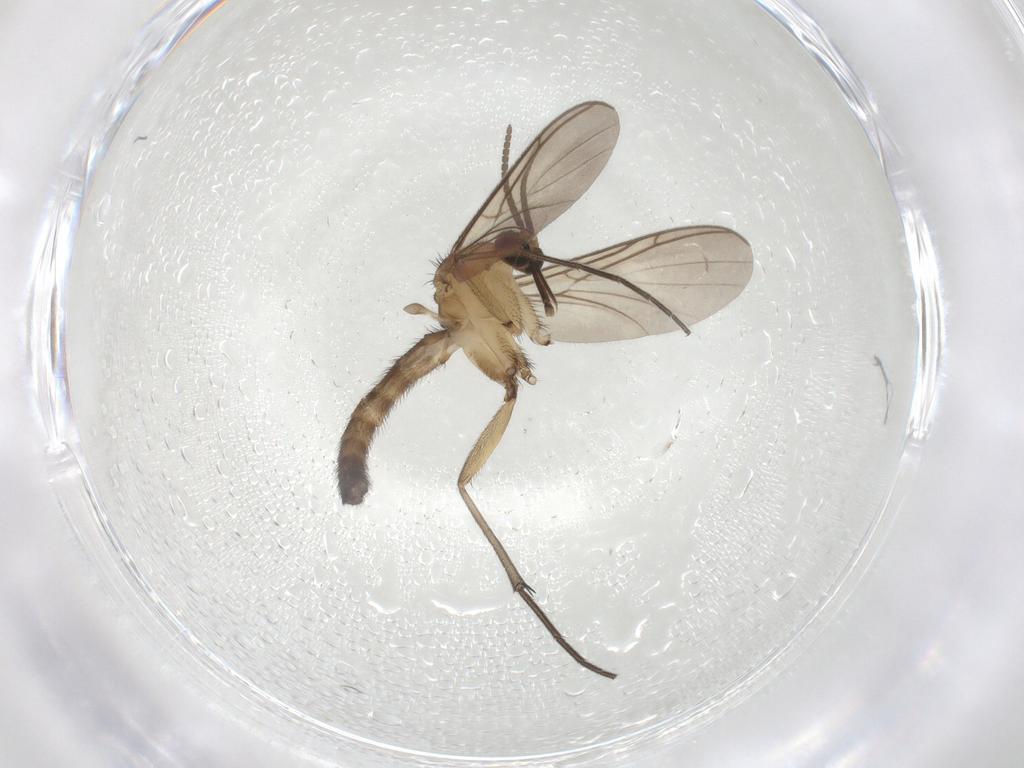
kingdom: Animalia
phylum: Arthropoda
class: Insecta
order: Diptera
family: Keroplatidae
